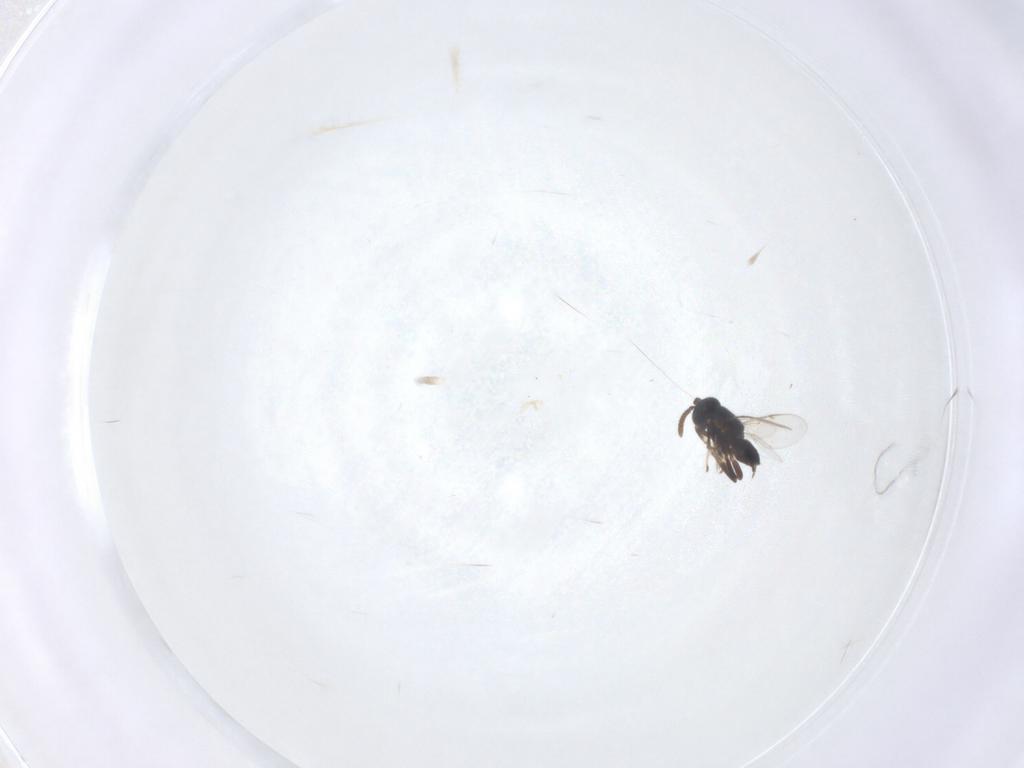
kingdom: Animalia
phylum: Arthropoda
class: Insecta
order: Hymenoptera
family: Encyrtidae
